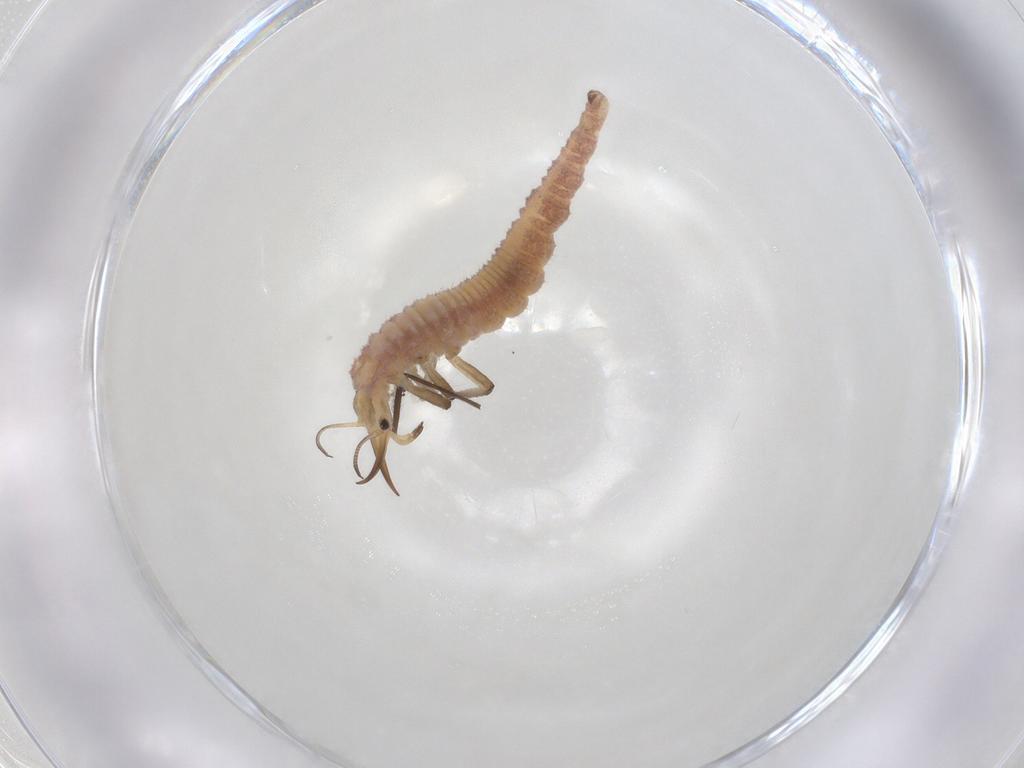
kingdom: Animalia
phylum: Arthropoda
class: Insecta
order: Neuroptera
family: Chrysopidae
